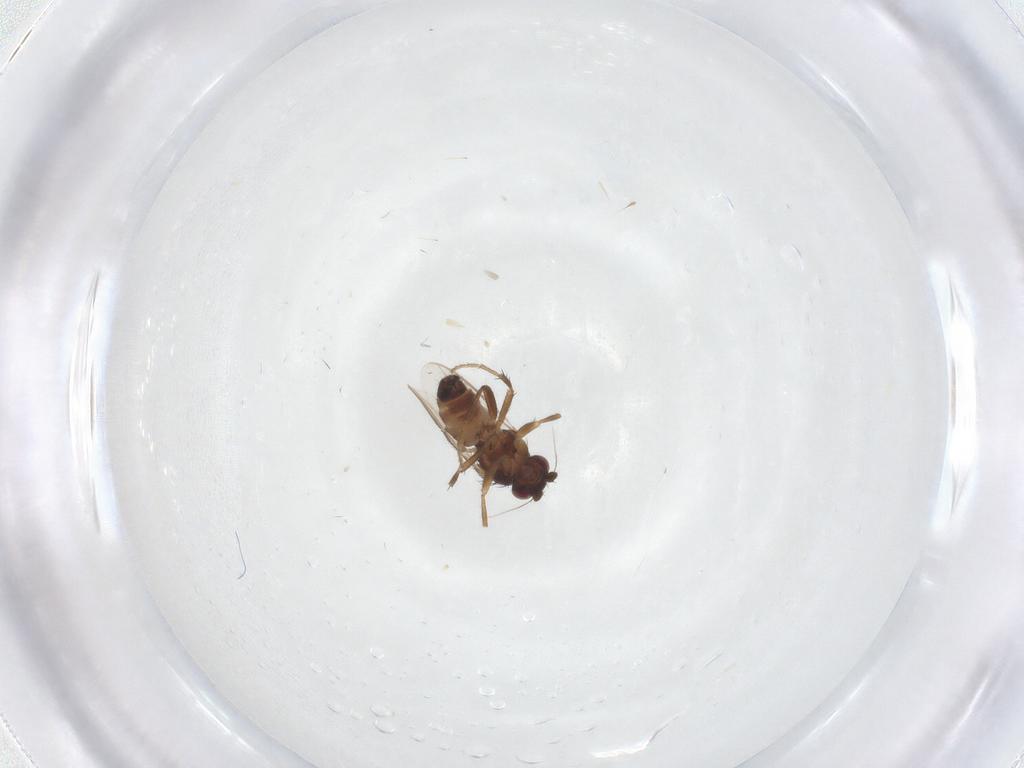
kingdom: Animalia
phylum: Arthropoda
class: Insecta
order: Diptera
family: Sphaeroceridae
